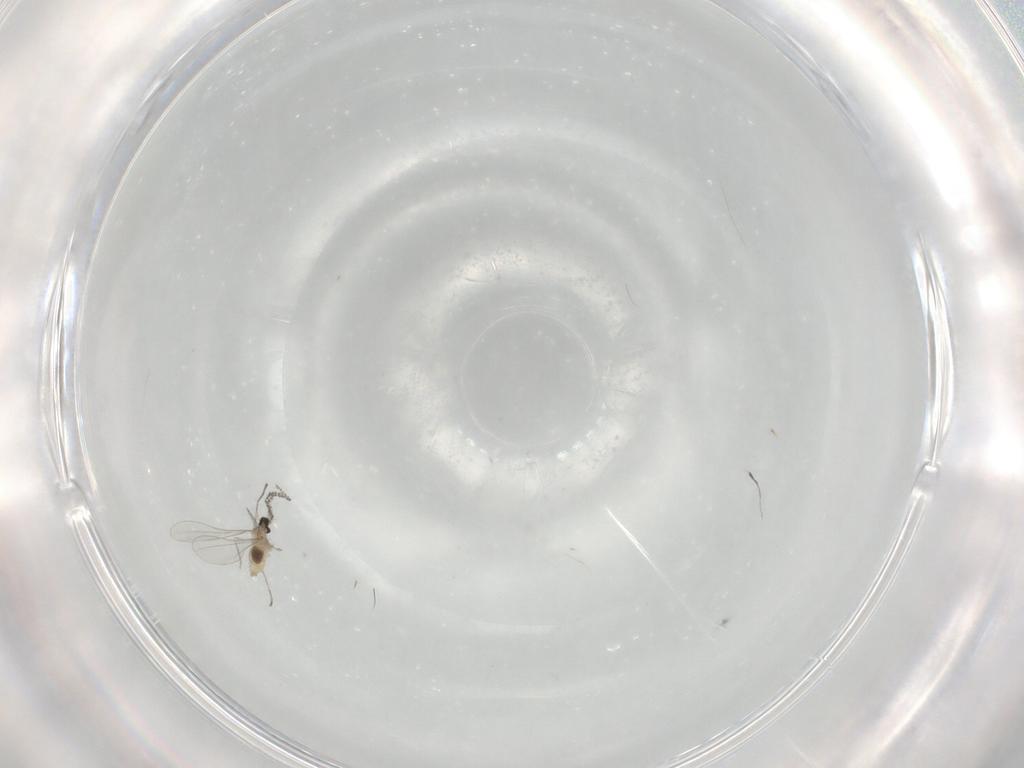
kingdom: Animalia
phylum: Arthropoda
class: Insecta
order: Diptera
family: Cecidomyiidae
